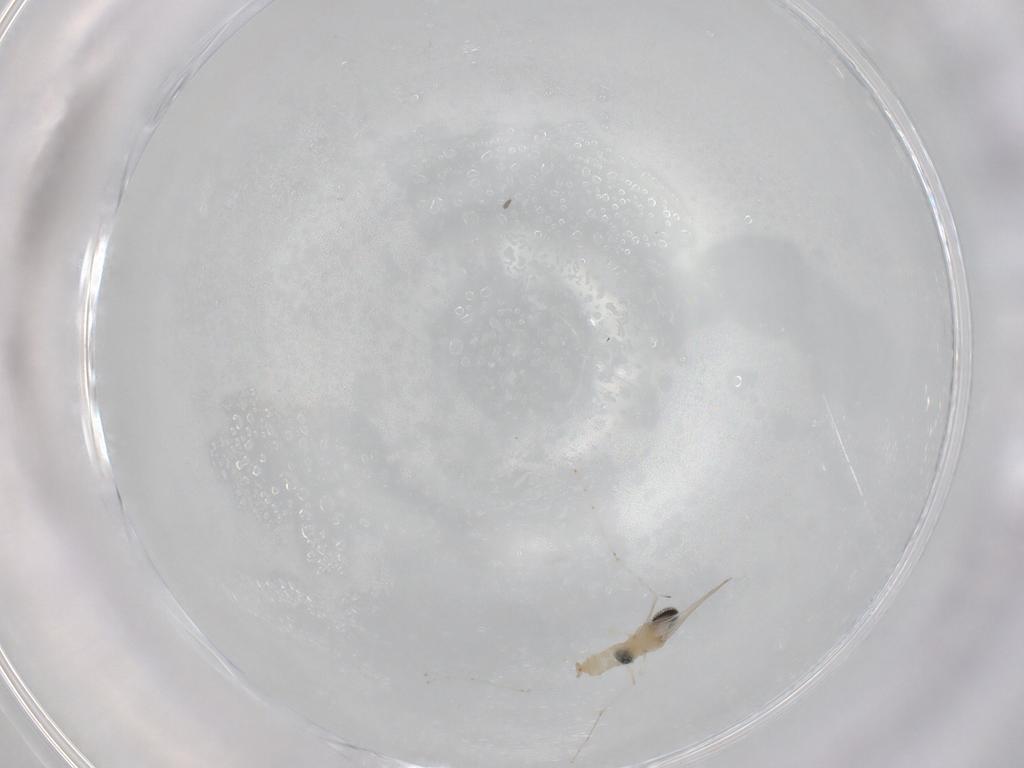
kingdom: Animalia
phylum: Arthropoda
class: Insecta
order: Diptera
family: Cecidomyiidae
